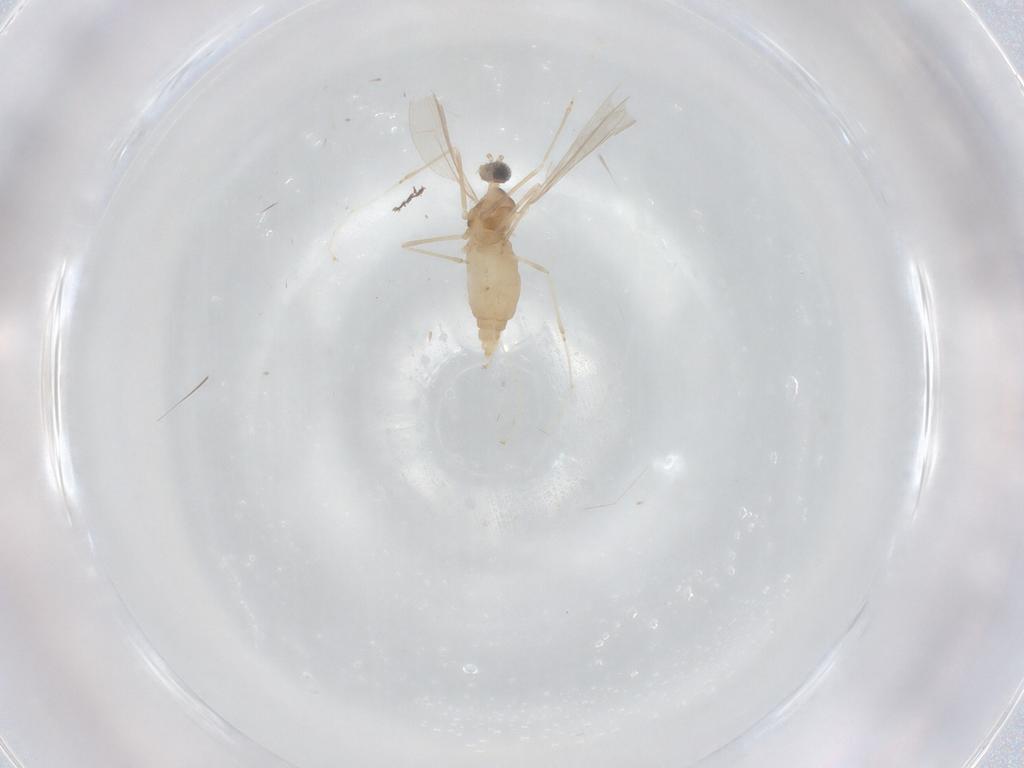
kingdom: Animalia
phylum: Arthropoda
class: Insecta
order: Diptera
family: Cecidomyiidae
